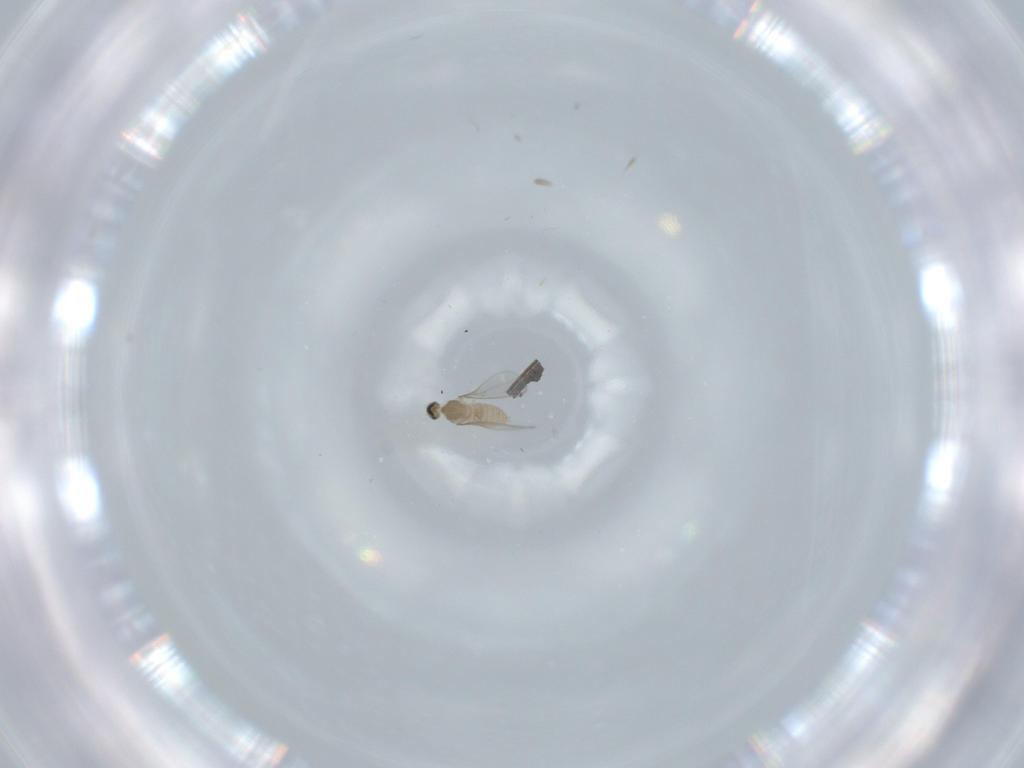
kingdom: Animalia
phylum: Arthropoda
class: Insecta
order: Diptera
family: Cecidomyiidae
